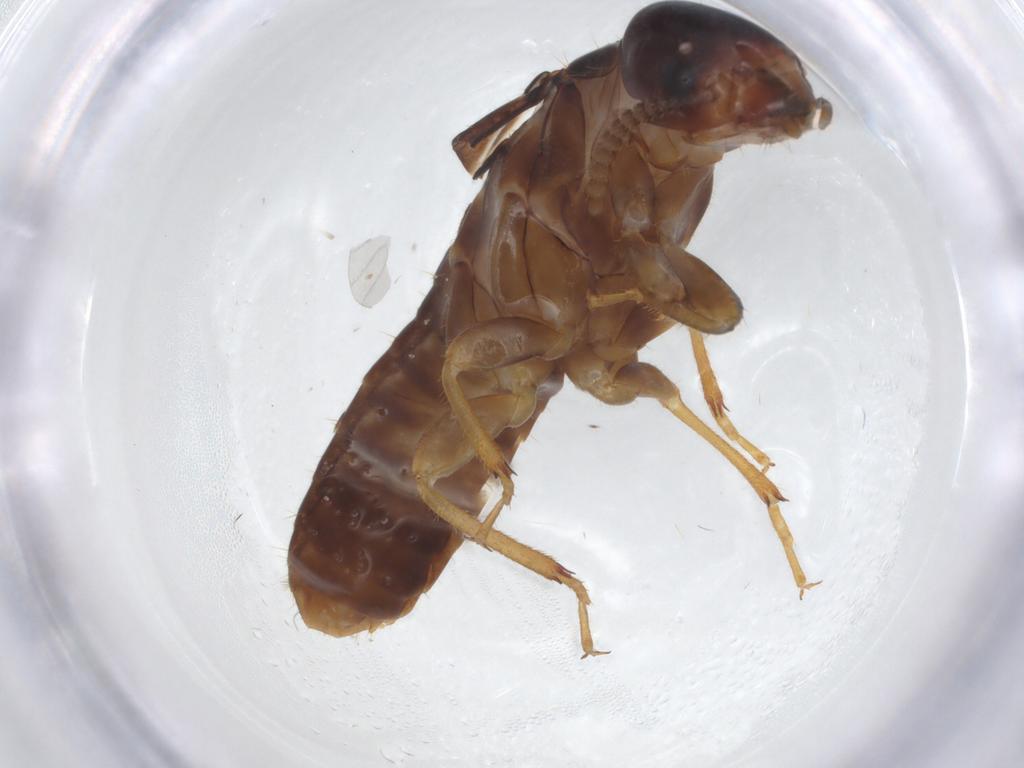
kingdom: Animalia
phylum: Arthropoda
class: Insecta
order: Blattodea
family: Kalotermitidae
